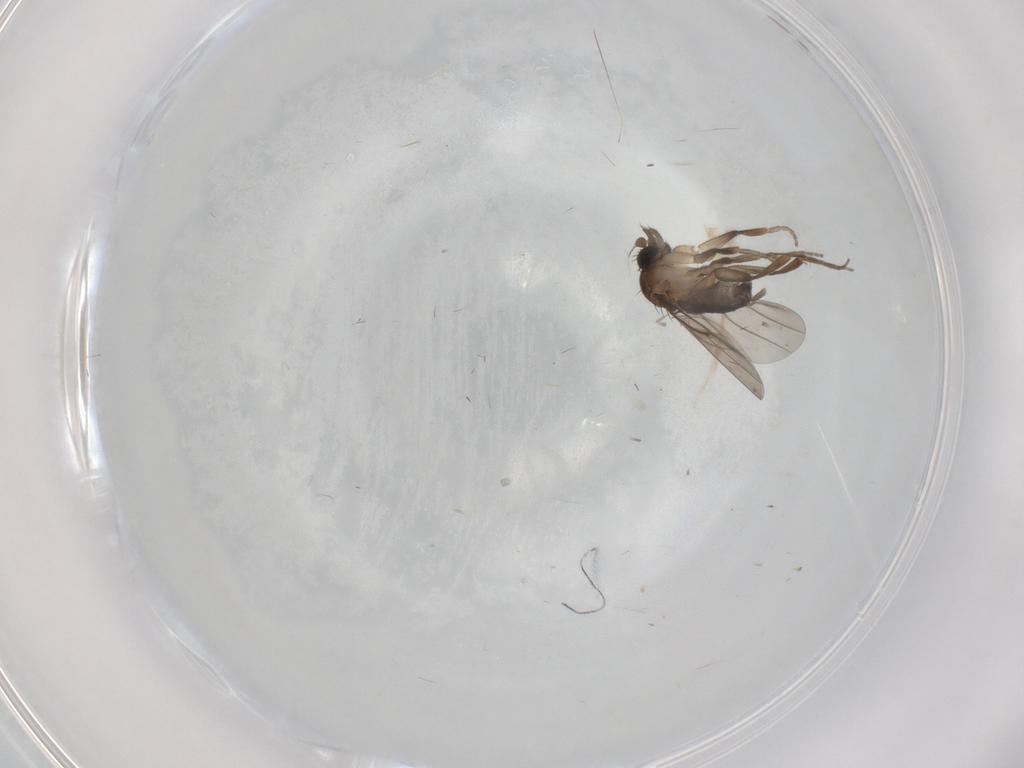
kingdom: Animalia
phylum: Arthropoda
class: Insecta
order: Diptera
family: Phoridae
